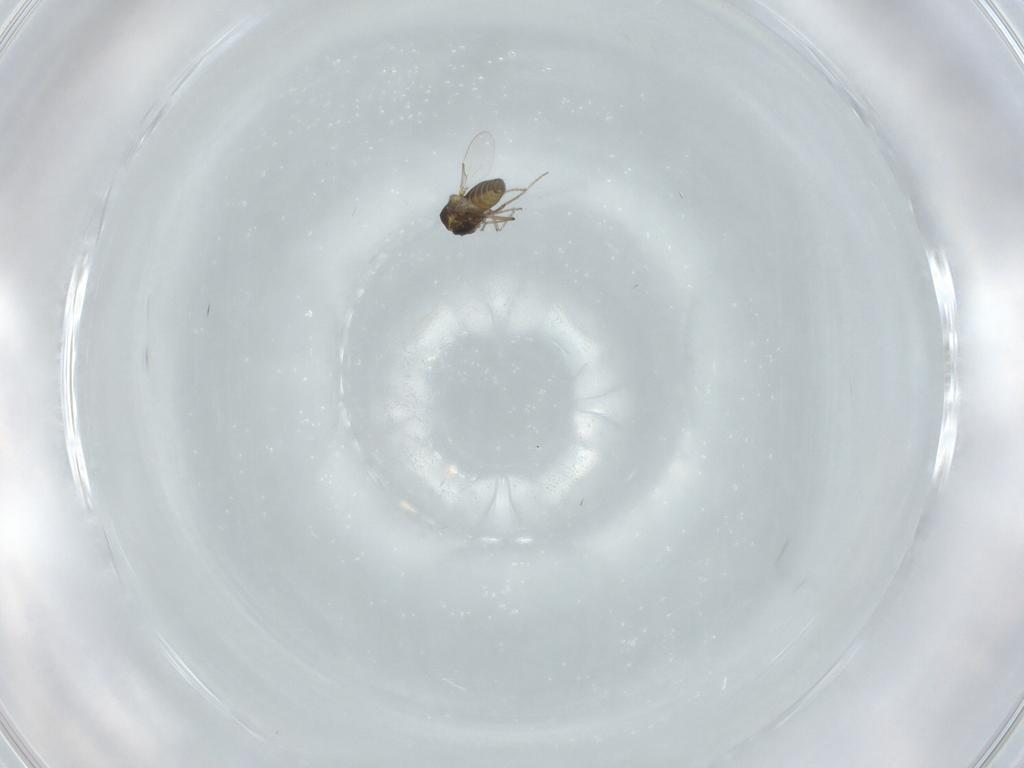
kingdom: Animalia
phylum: Arthropoda
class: Insecta
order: Diptera
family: Ceratopogonidae
